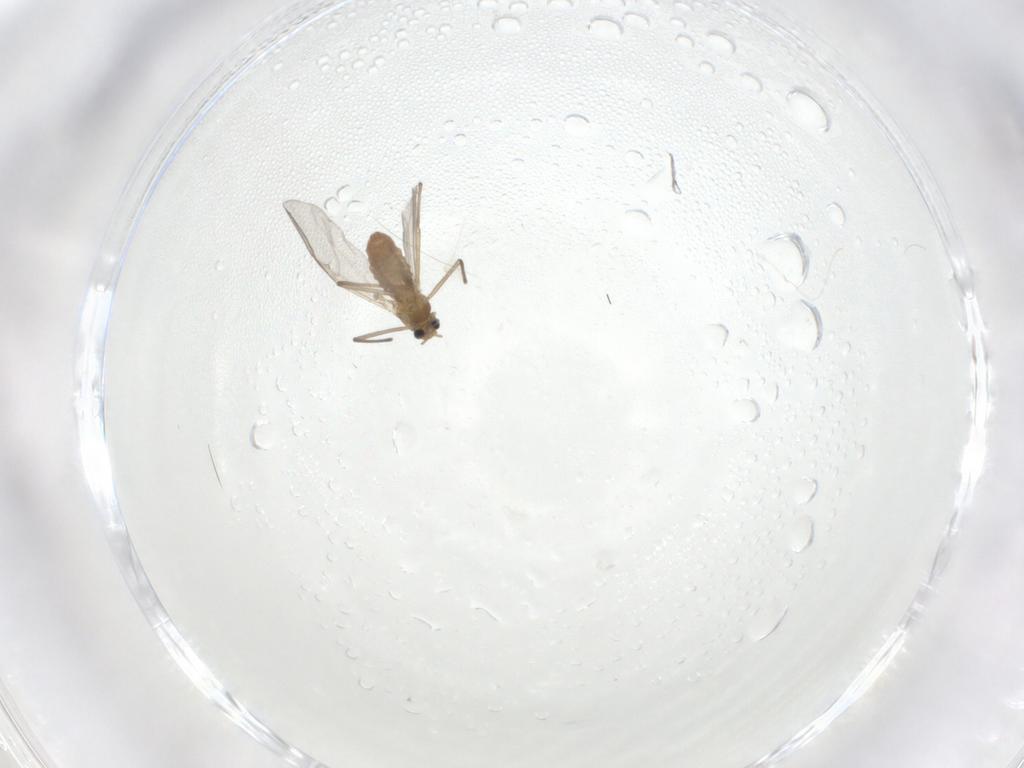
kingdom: Animalia
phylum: Arthropoda
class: Insecta
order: Diptera
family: Chironomidae
